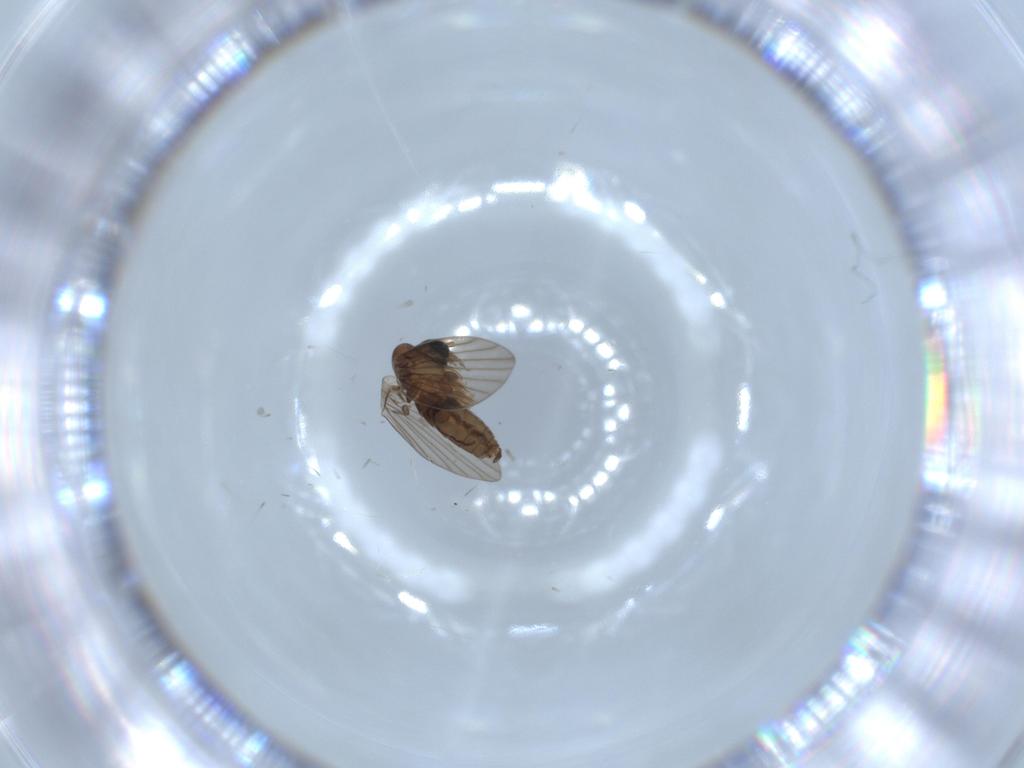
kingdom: Animalia
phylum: Arthropoda
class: Insecta
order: Diptera
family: Psychodidae
